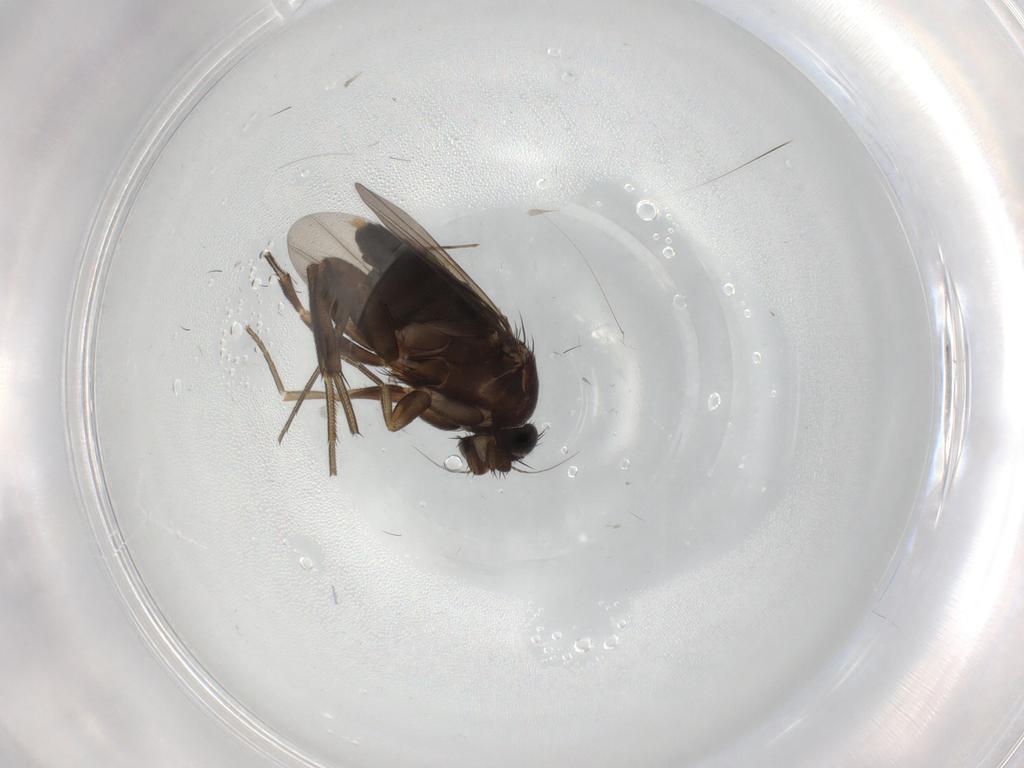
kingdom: Animalia
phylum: Arthropoda
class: Insecta
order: Diptera
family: Phoridae
